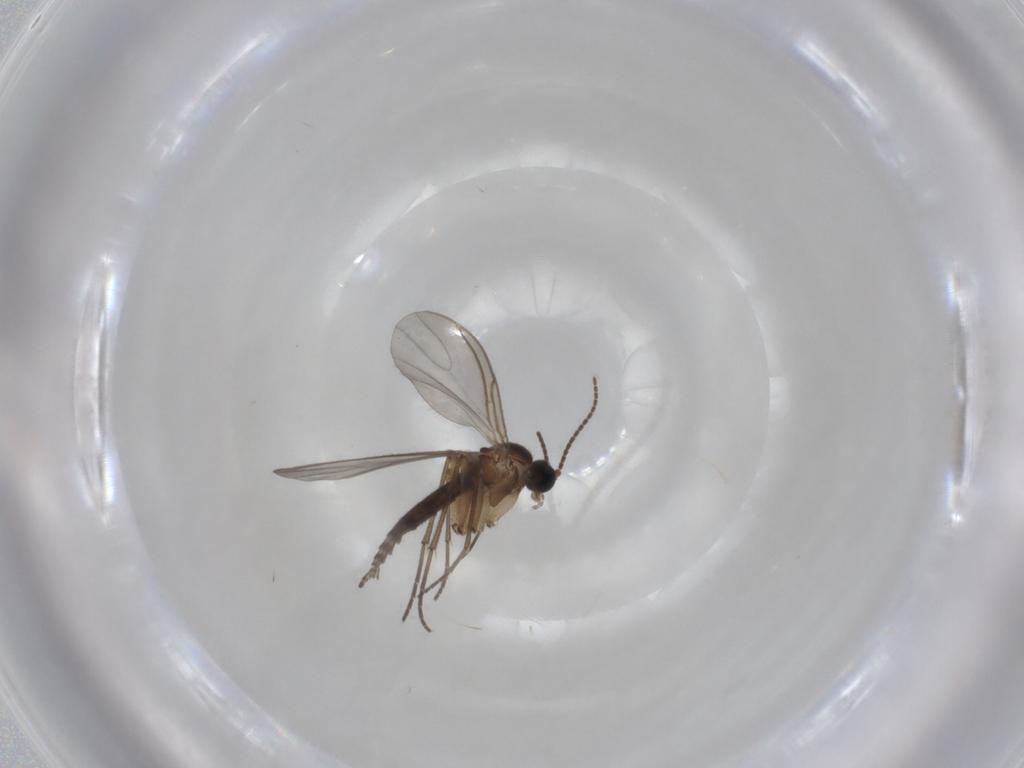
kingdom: Animalia
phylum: Arthropoda
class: Insecta
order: Diptera
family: Sciaridae
